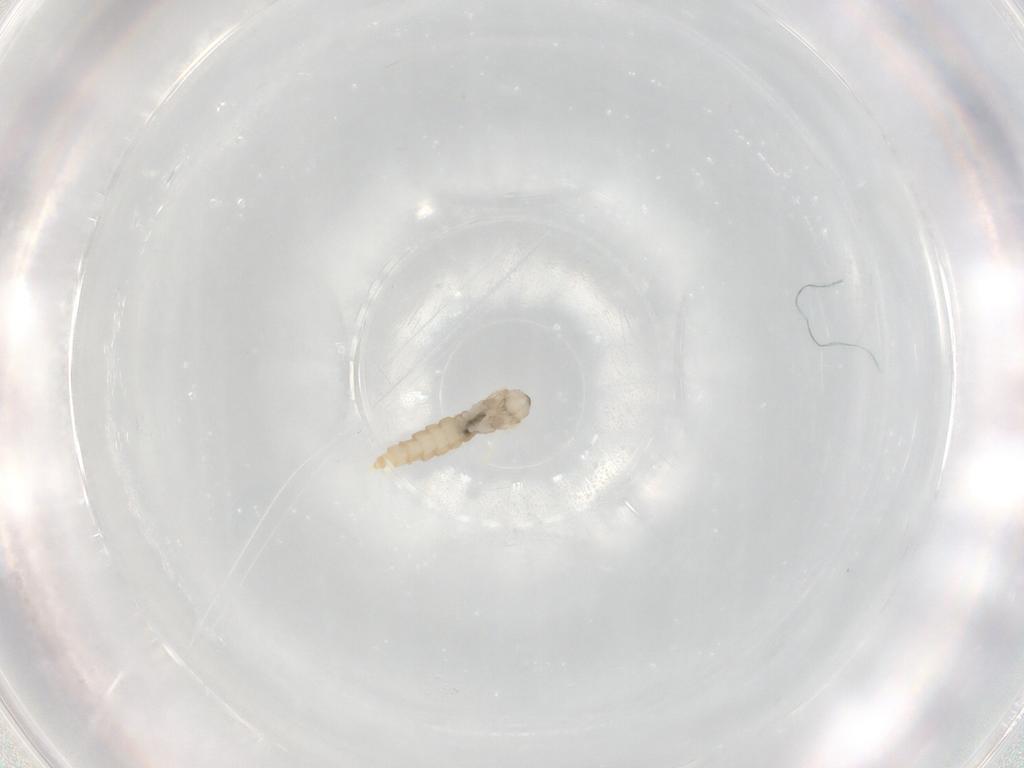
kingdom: Animalia
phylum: Arthropoda
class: Insecta
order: Diptera
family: Cecidomyiidae
